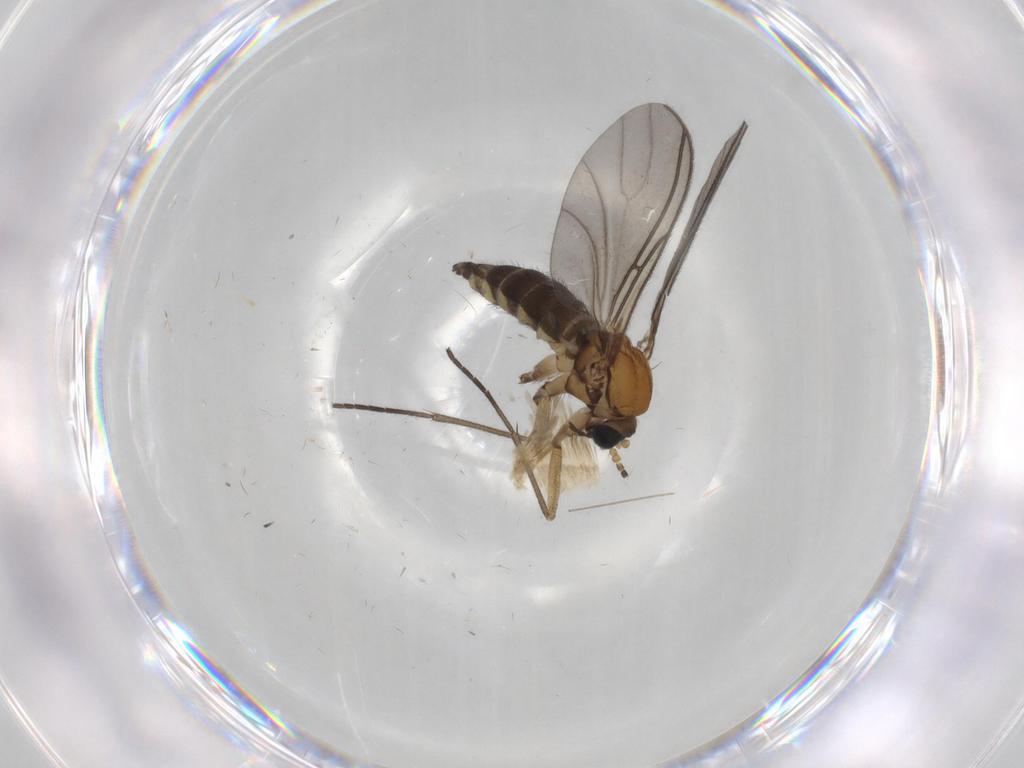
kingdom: Animalia
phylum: Arthropoda
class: Insecta
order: Diptera
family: Sciaridae
